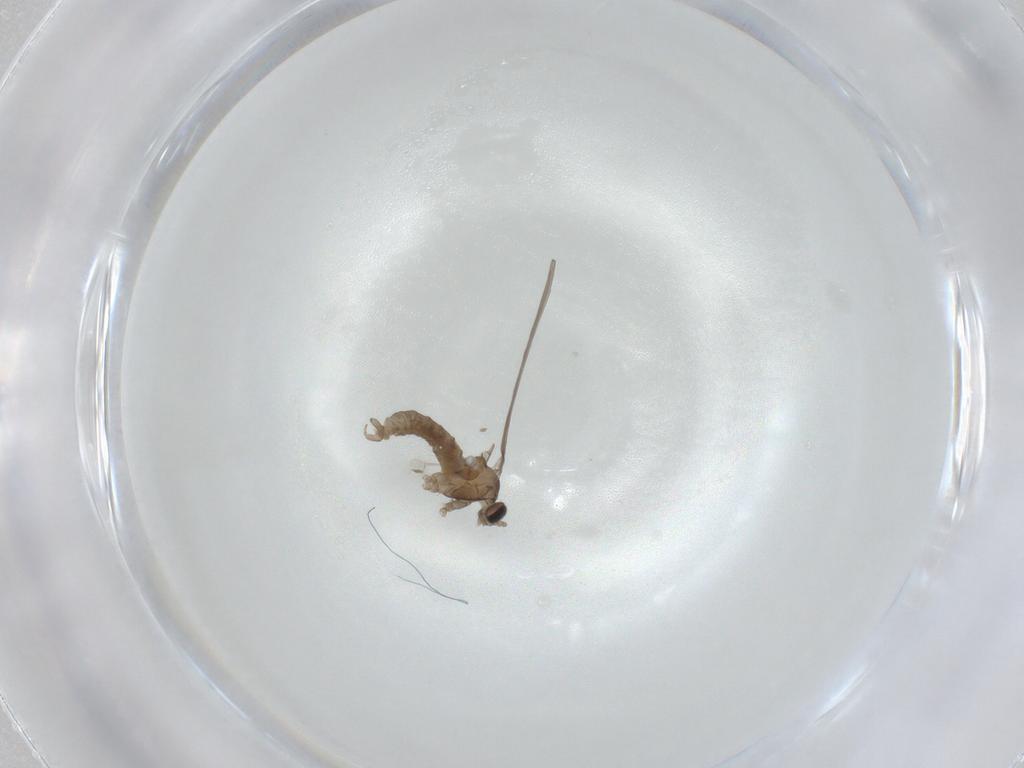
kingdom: Animalia
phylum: Arthropoda
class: Insecta
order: Diptera
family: Cecidomyiidae
